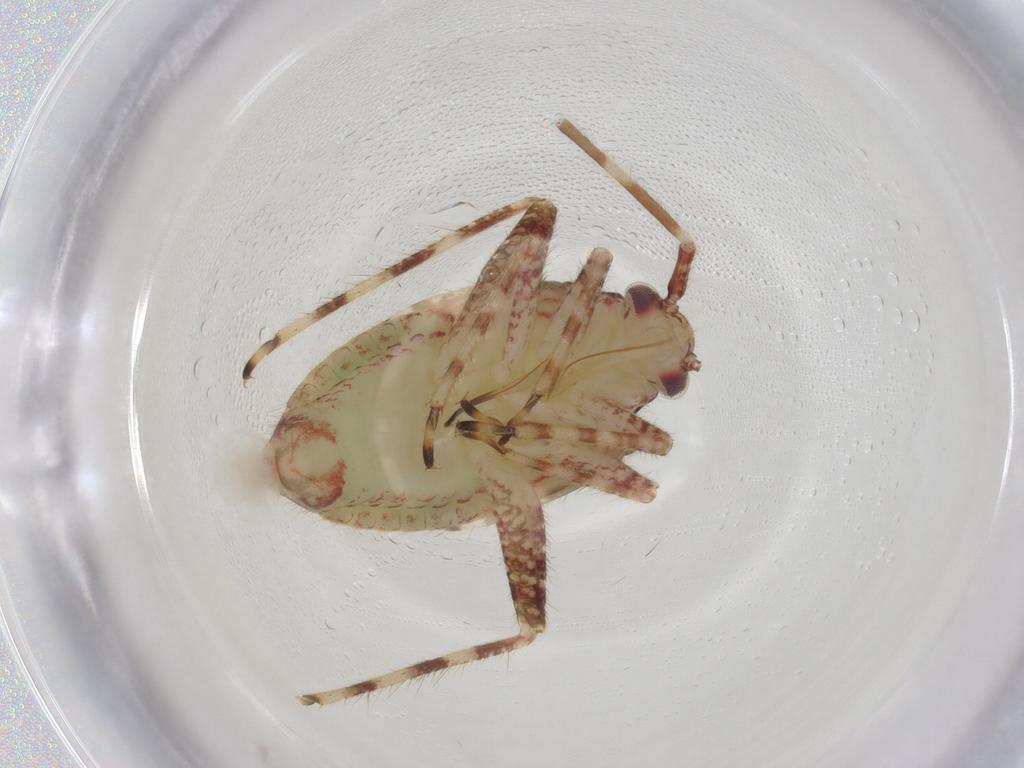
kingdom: Animalia
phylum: Arthropoda
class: Insecta
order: Hemiptera
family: Miridae
